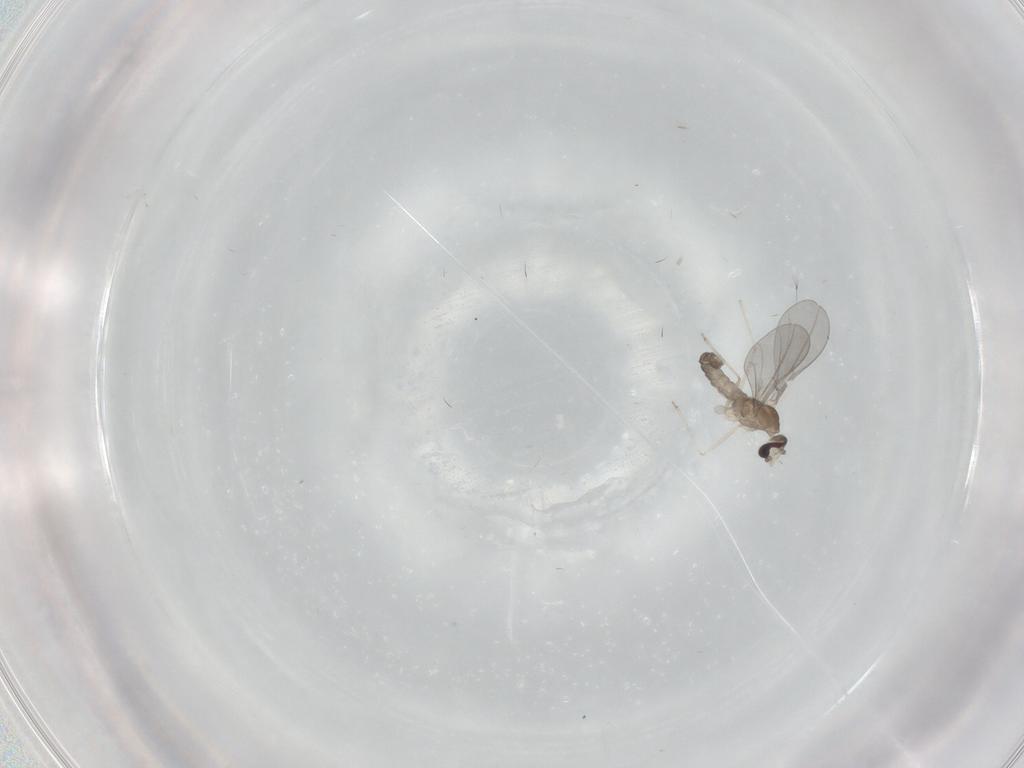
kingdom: Animalia
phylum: Arthropoda
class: Insecta
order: Diptera
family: Cecidomyiidae
